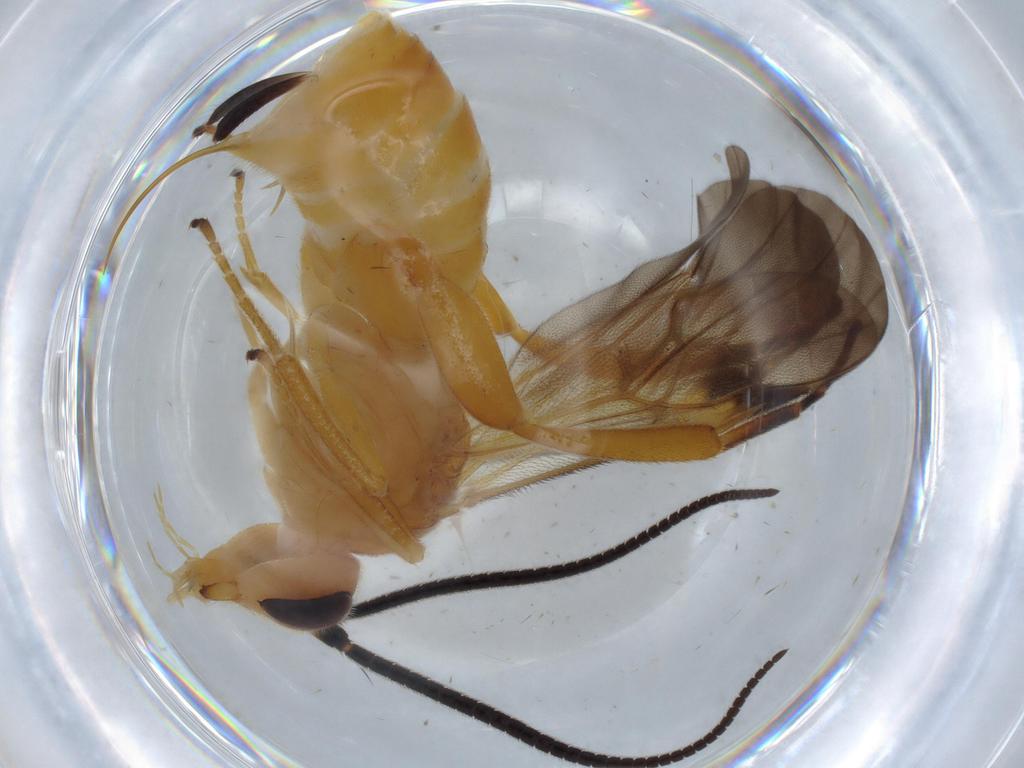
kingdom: Animalia
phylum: Arthropoda
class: Insecta
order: Hymenoptera
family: Braconidae
